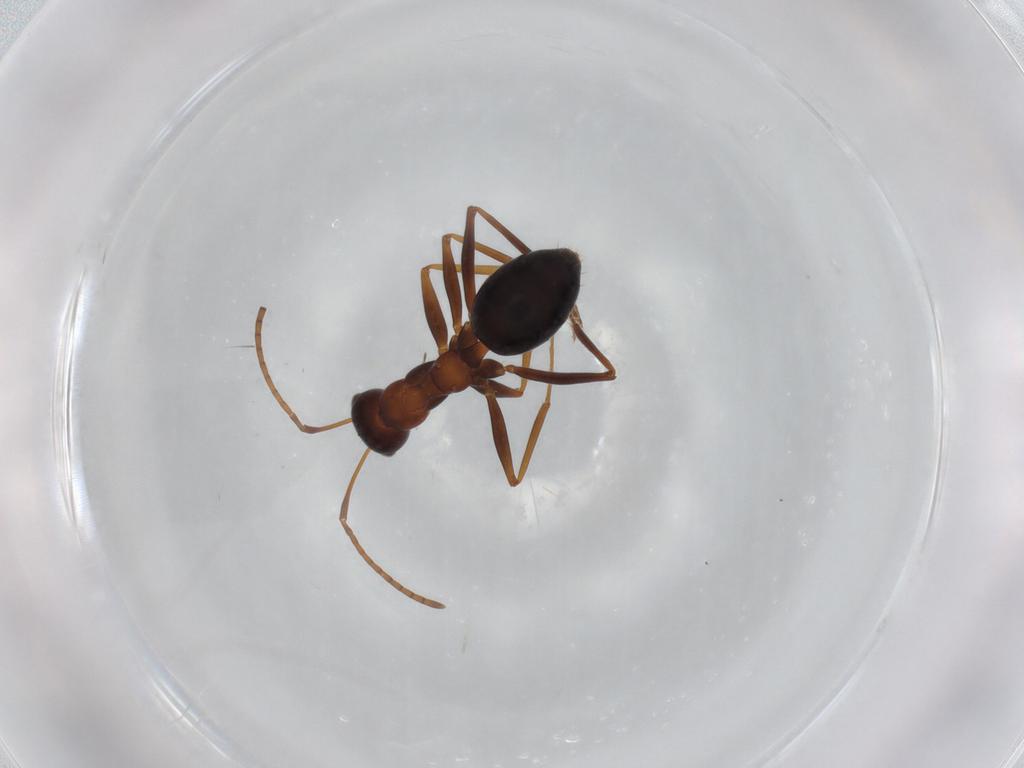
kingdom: Animalia
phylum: Arthropoda
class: Insecta
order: Hymenoptera
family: Formicidae
